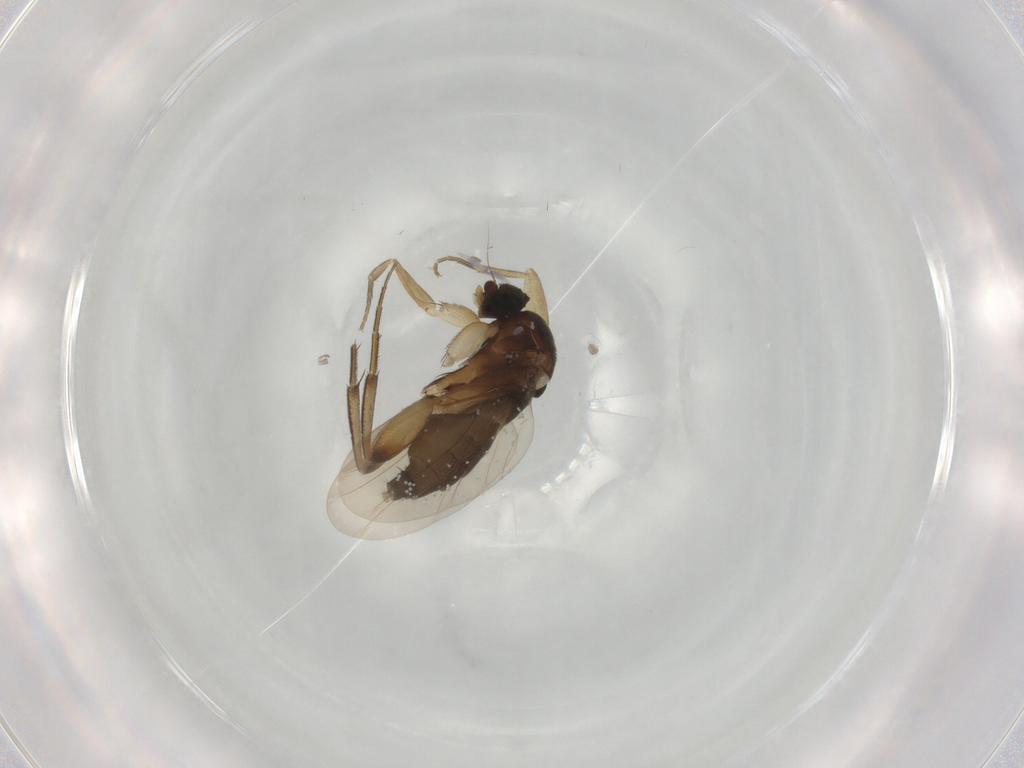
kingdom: Animalia
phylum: Arthropoda
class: Insecta
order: Diptera
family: Phoridae
